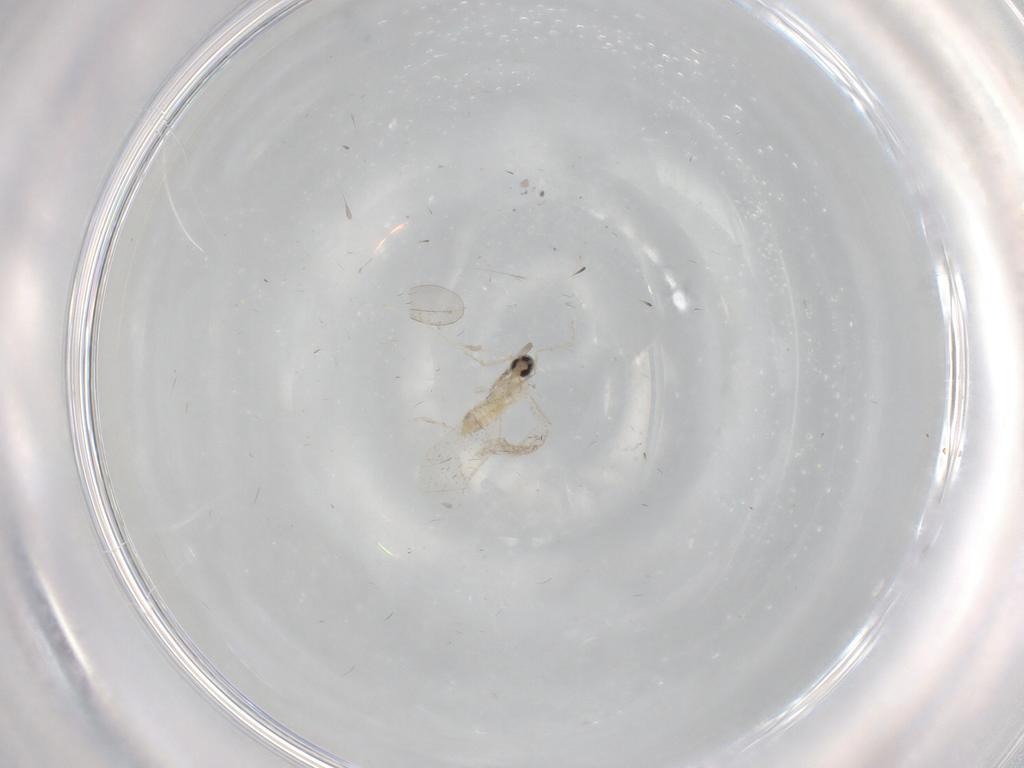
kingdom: Animalia
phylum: Arthropoda
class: Insecta
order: Diptera
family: Cecidomyiidae
